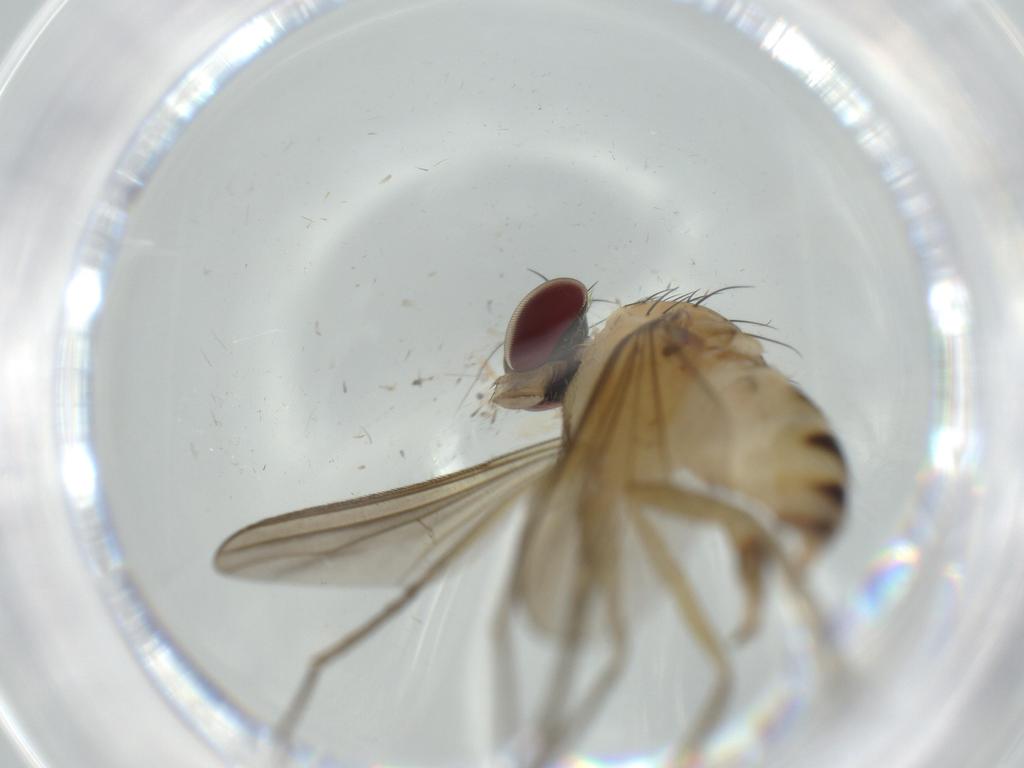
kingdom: Animalia
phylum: Arthropoda
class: Insecta
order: Diptera
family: Dolichopodidae
